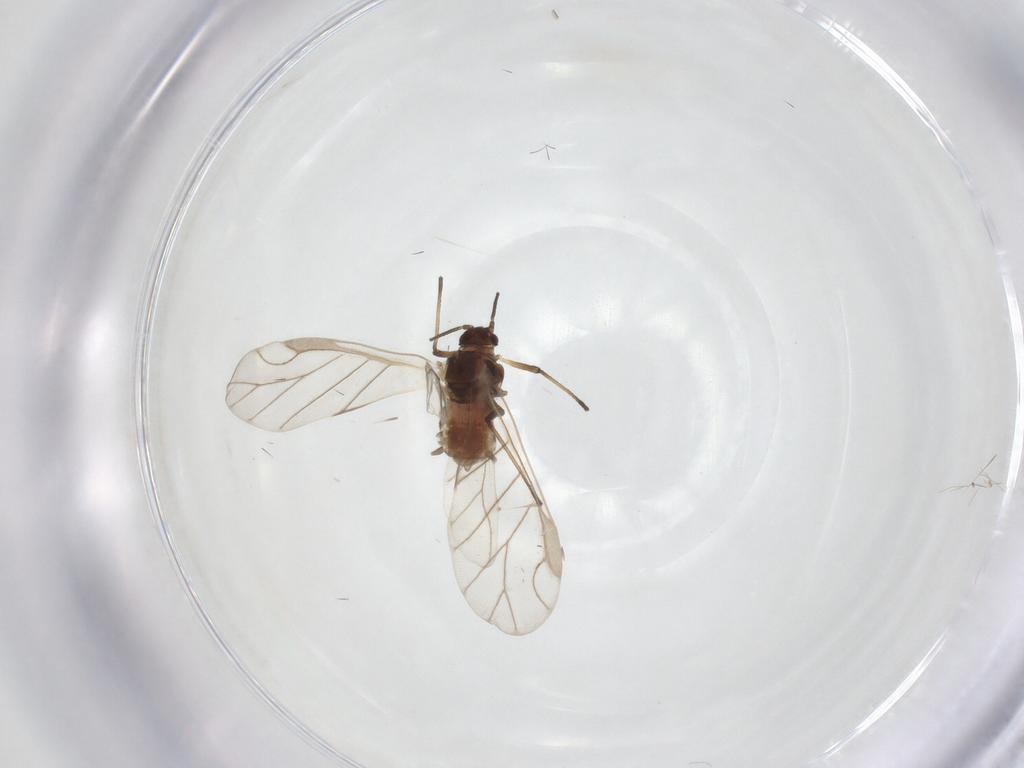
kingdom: Animalia
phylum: Arthropoda
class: Insecta
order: Hemiptera
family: Aphididae
